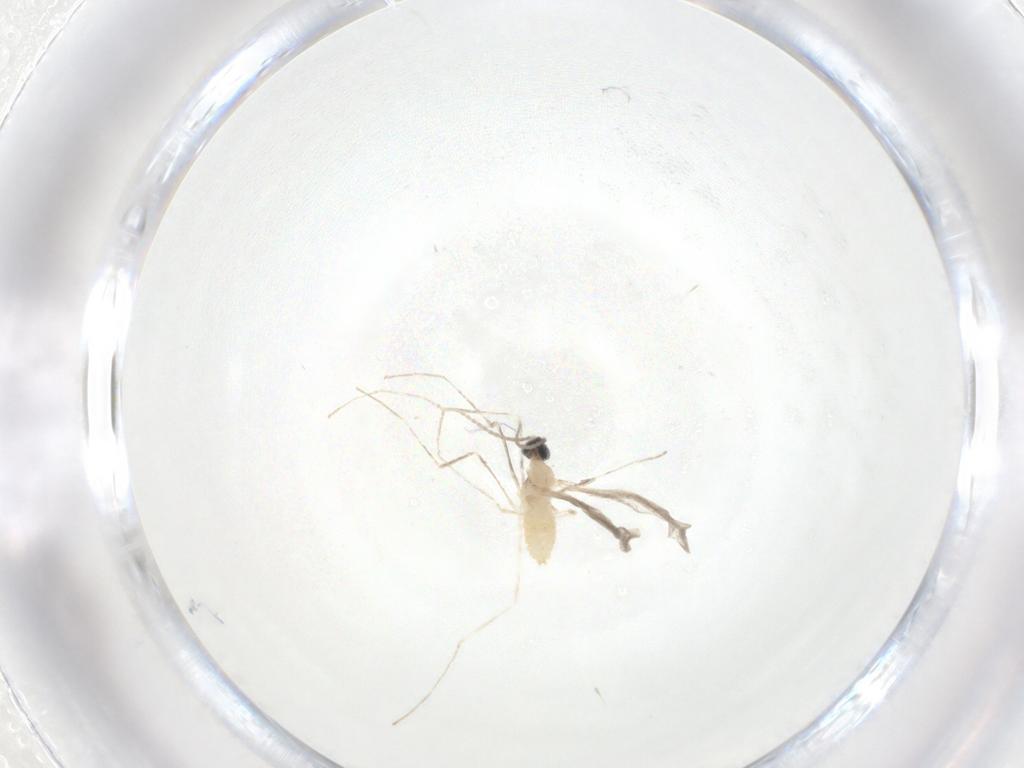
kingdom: Animalia
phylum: Arthropoda
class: Insecta
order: Diptera
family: Cecidomyiidae
